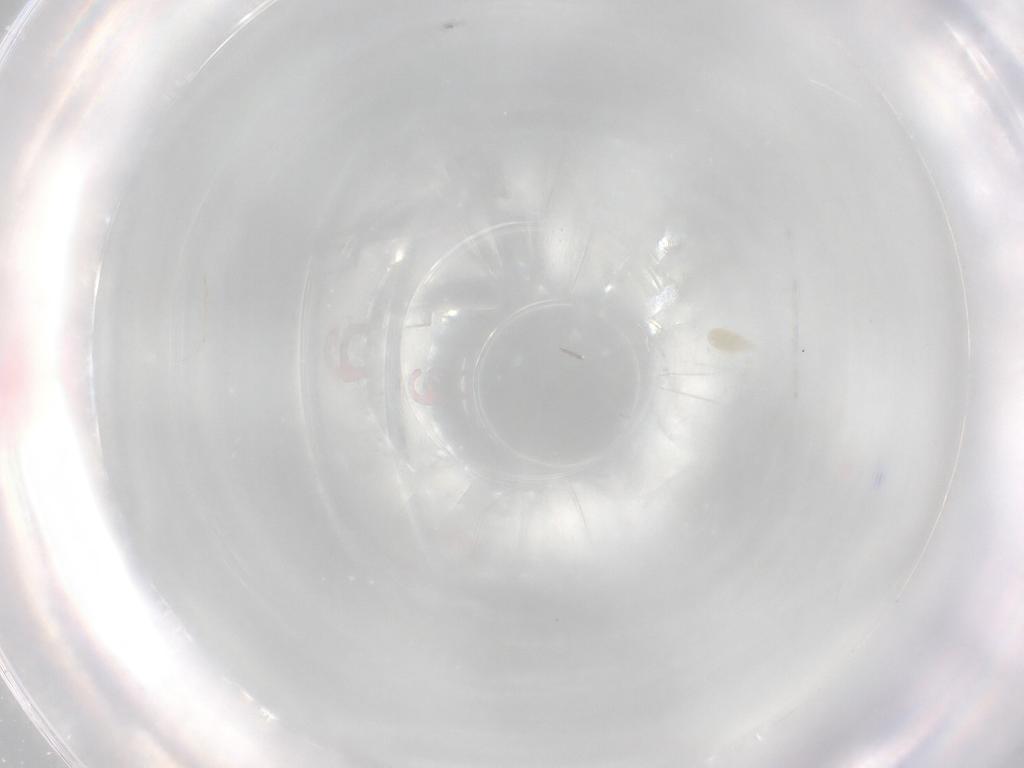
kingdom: Animalia
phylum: Arthropoda
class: Arachnida
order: Trombidiformes
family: Rhagidiidae
